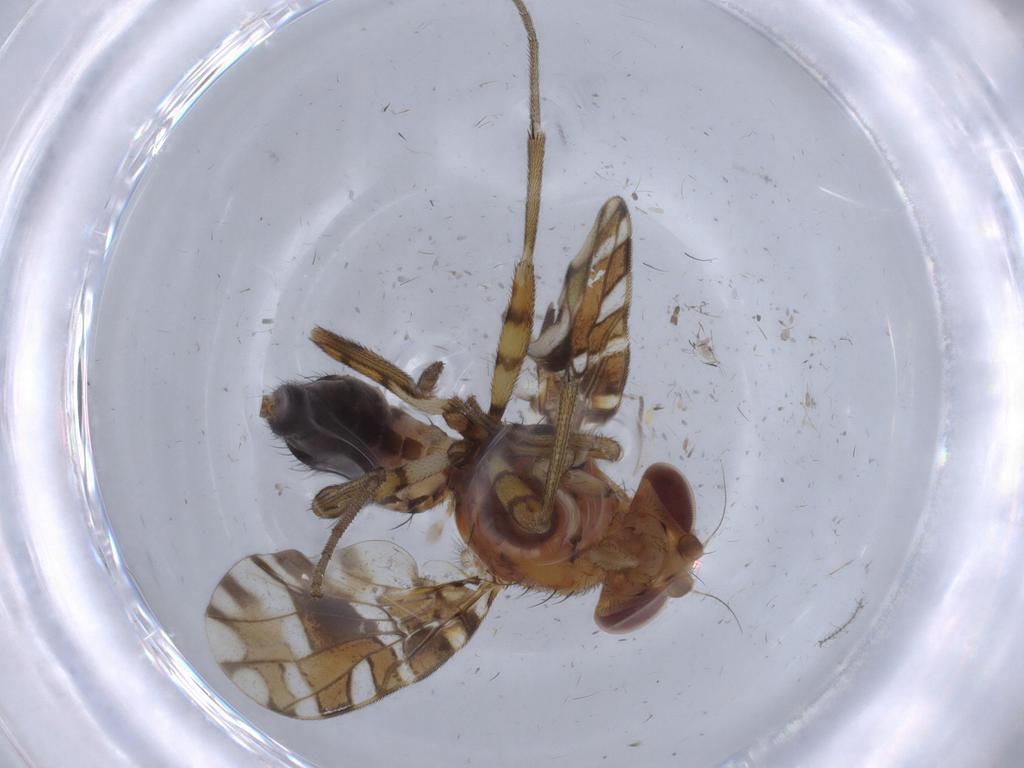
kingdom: Animalia
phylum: Arthropoda
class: Insecta
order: Diptera
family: Ulidiidae
